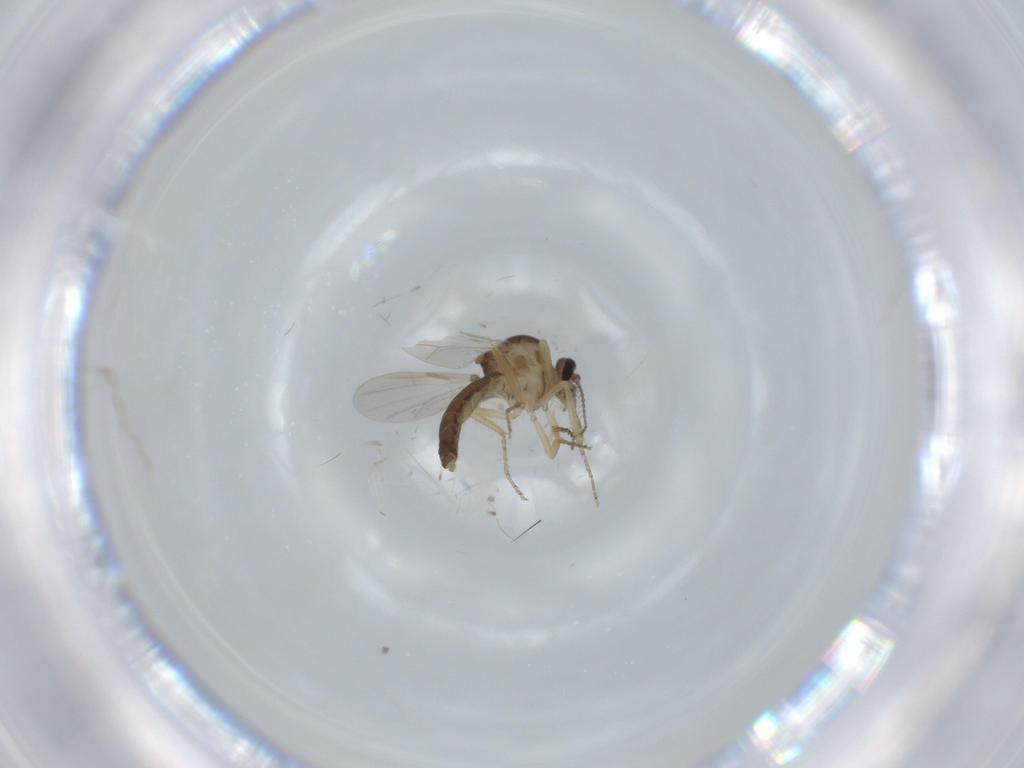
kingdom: Animalia
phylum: Arthropoda
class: Insecta
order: Diptera
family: Ceratopogonidae
